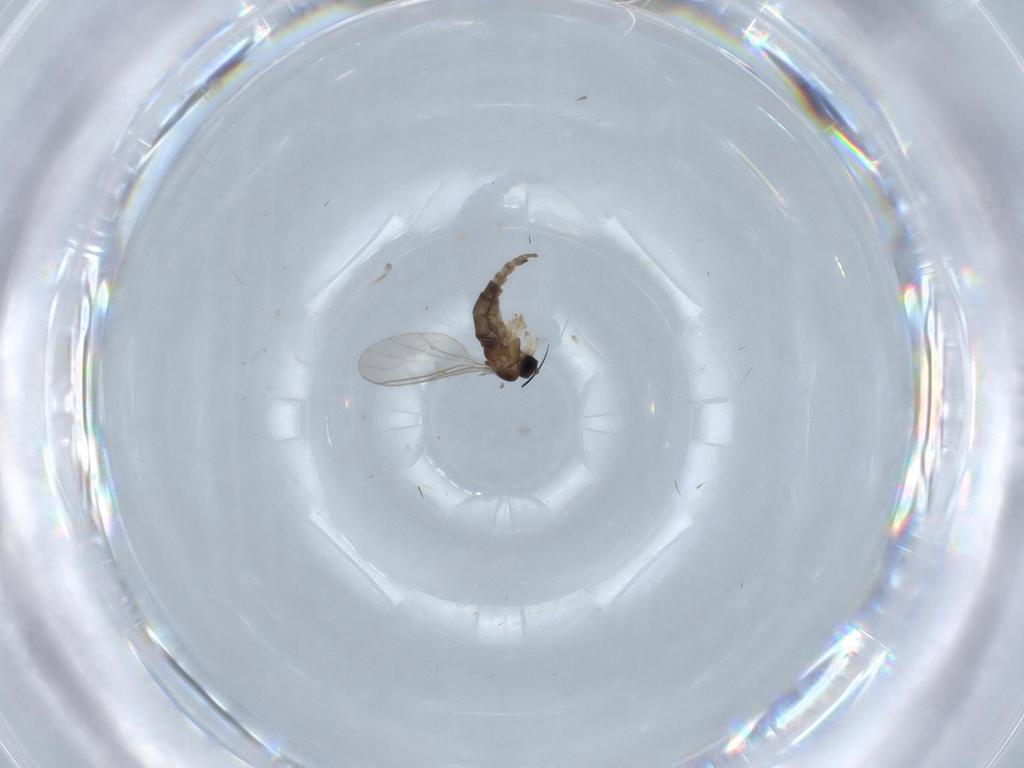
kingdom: Animalia
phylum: Arthropoda
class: Insecta
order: Diptera
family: Sciaridae
